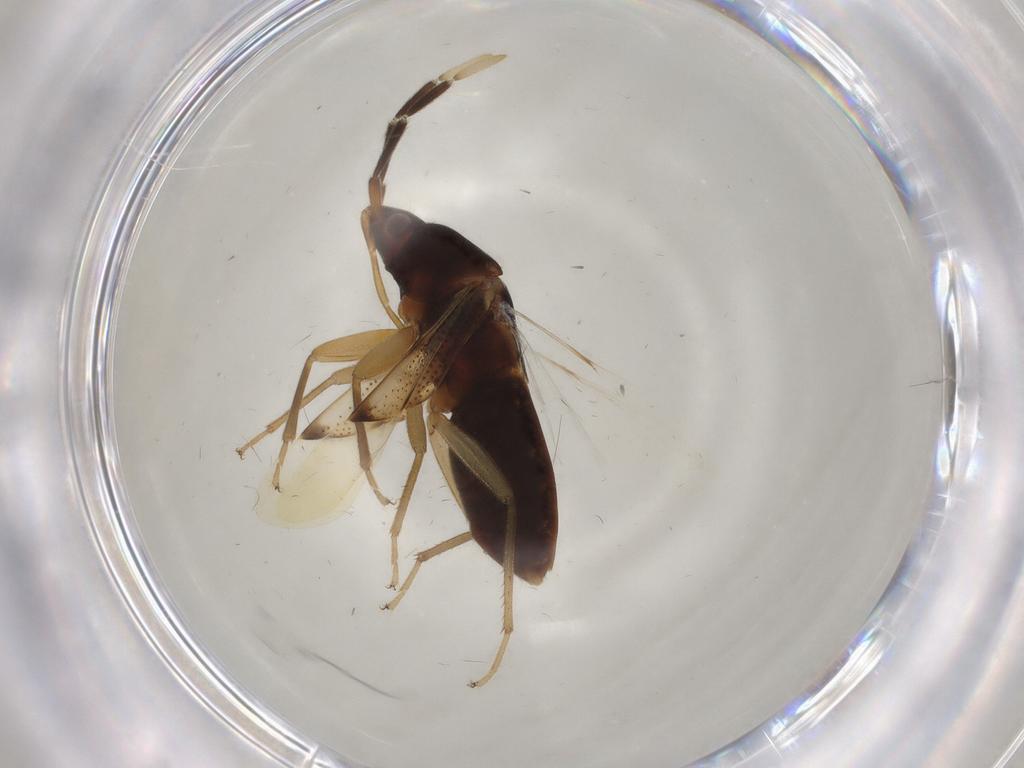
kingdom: Animalia
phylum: Arthropoda
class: Insecta
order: Hemiptera
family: Rhyparochromidae
